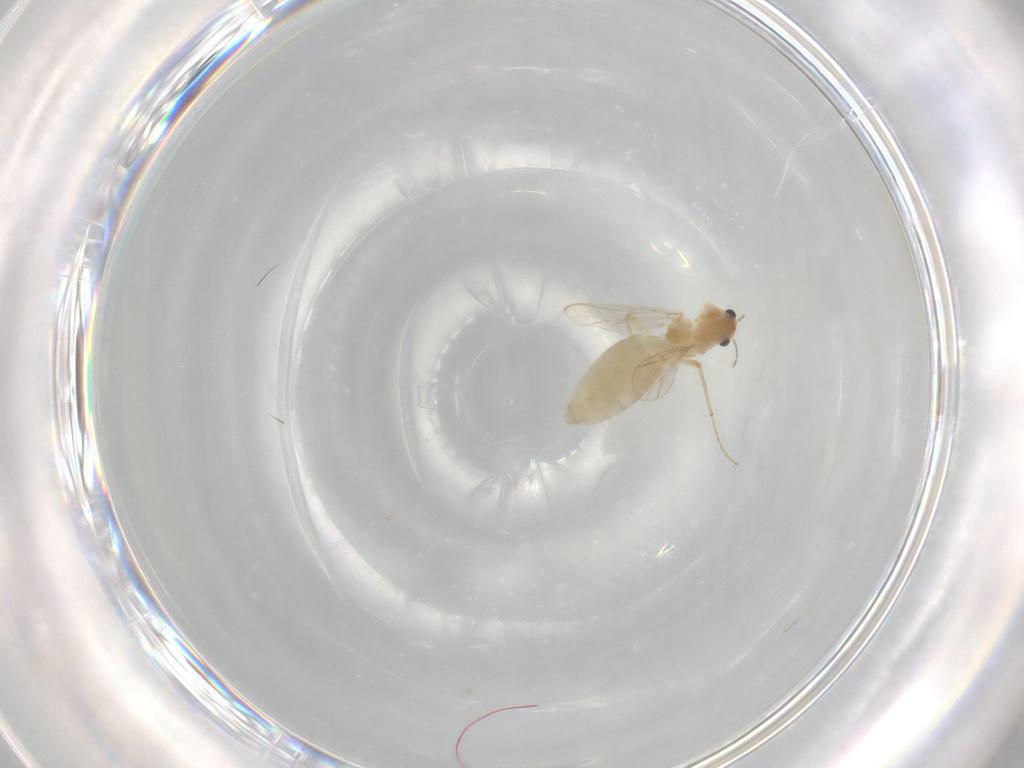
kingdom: Animalia
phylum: Arthropoda
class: Insecta
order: Diptera
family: Chironomidae
